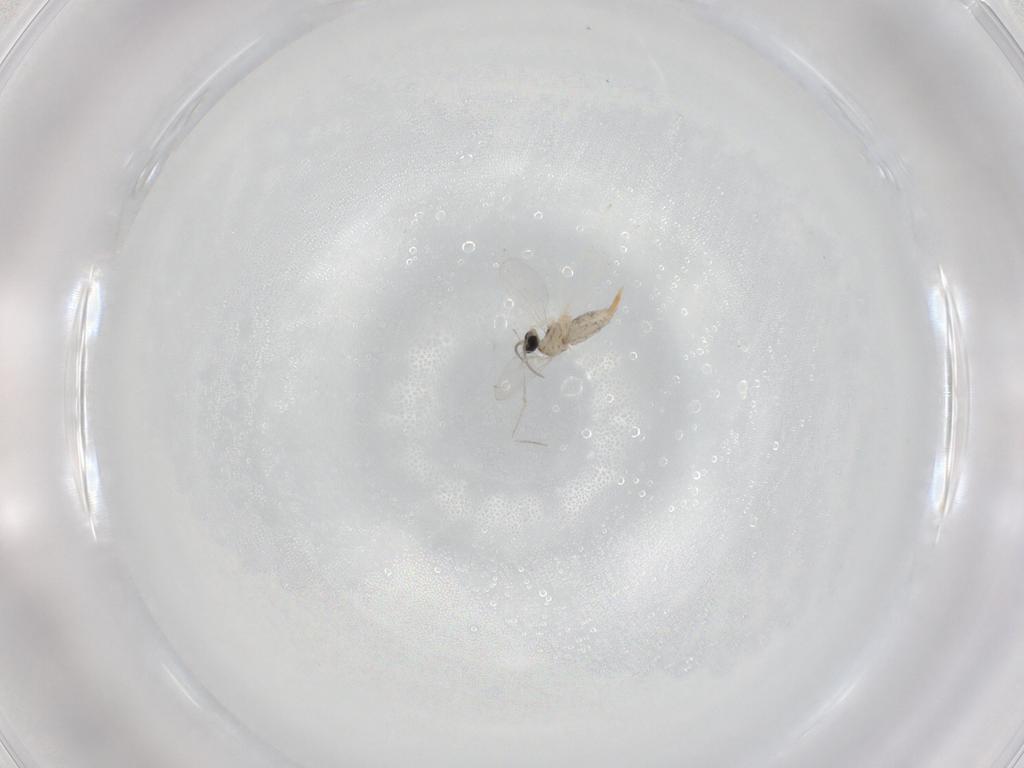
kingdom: Animalia
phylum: Arthropoda
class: Insecta
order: Diptera
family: Cecidomyiidae
